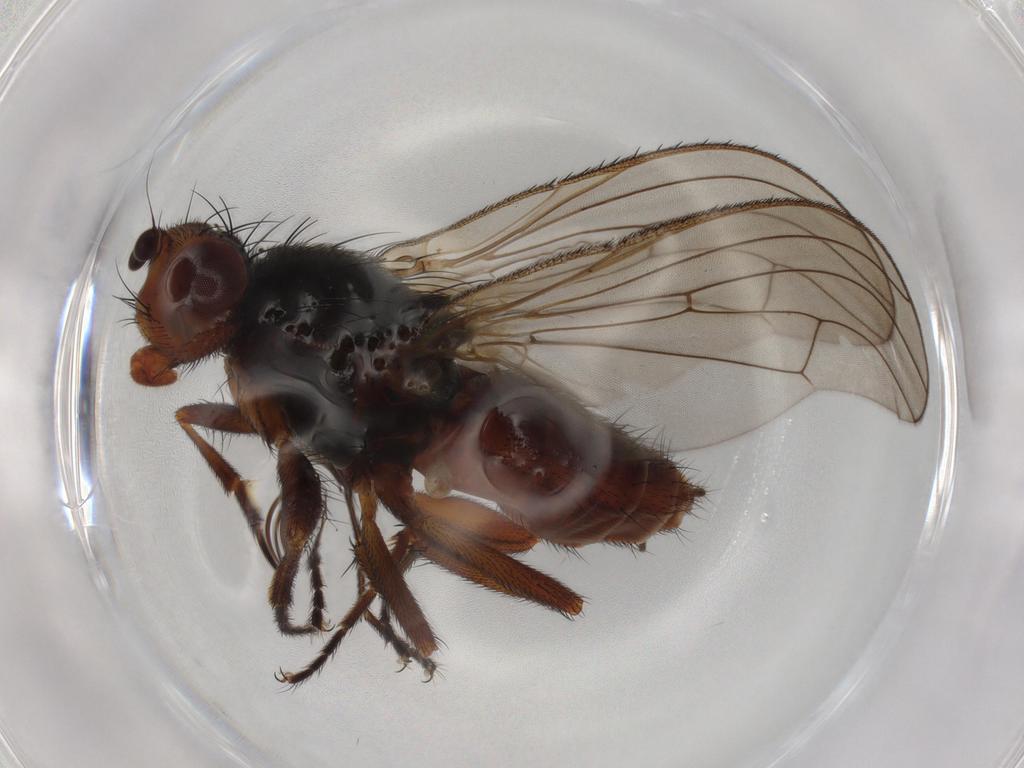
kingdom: Animalia
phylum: Arthropoda
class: Insecta
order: Diptera
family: Heleomyzidae
